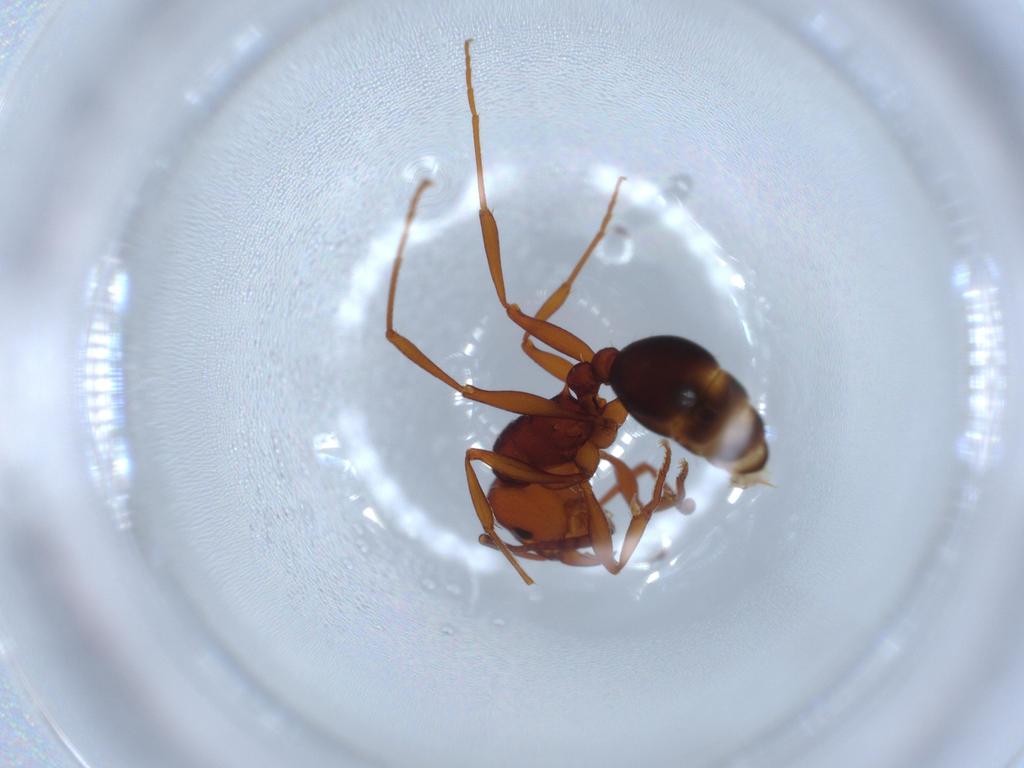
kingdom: Animalia
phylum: Arthropoda
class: Insecta
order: Hymenoptera
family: Formicidae
